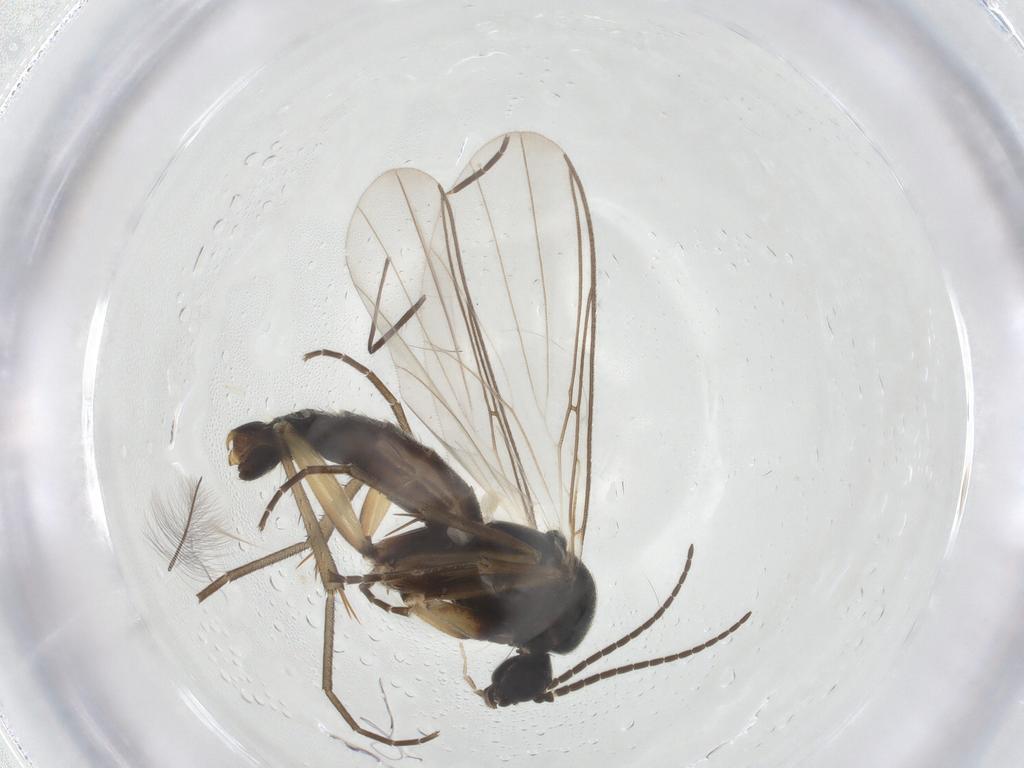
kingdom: Animalia
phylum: Arthropoda
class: Insecta
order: Diptera
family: Mycetophilidae
